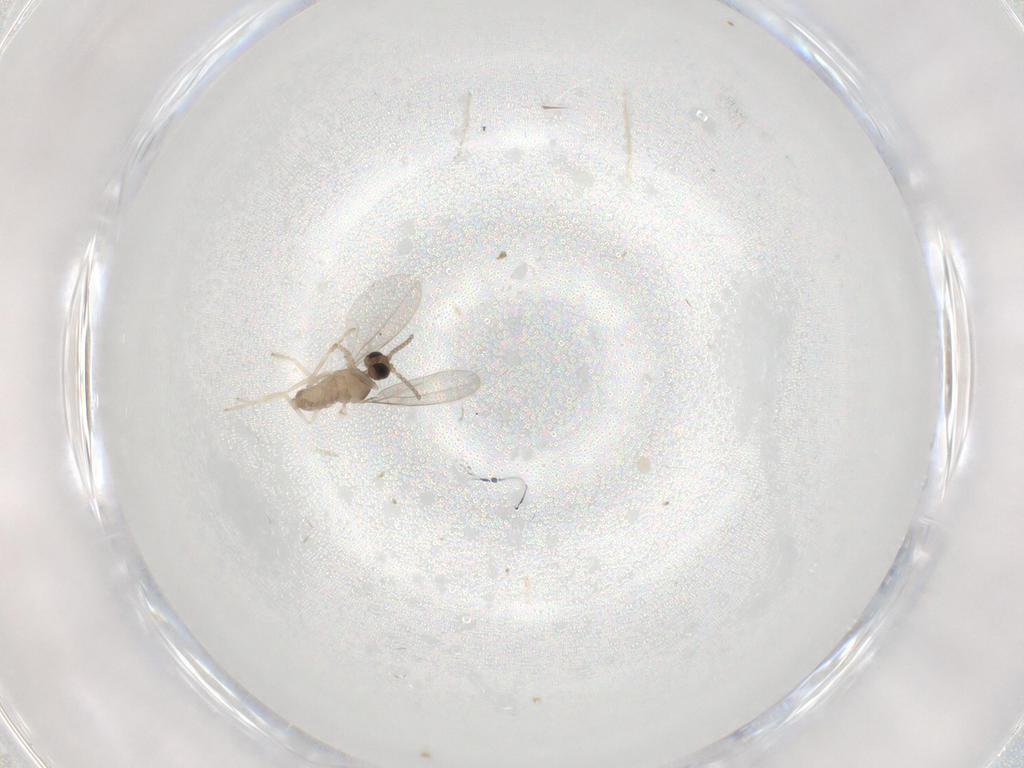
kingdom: Animalia
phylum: Arthropoda
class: Insecta
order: Diptera
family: Cecidomyiidae
